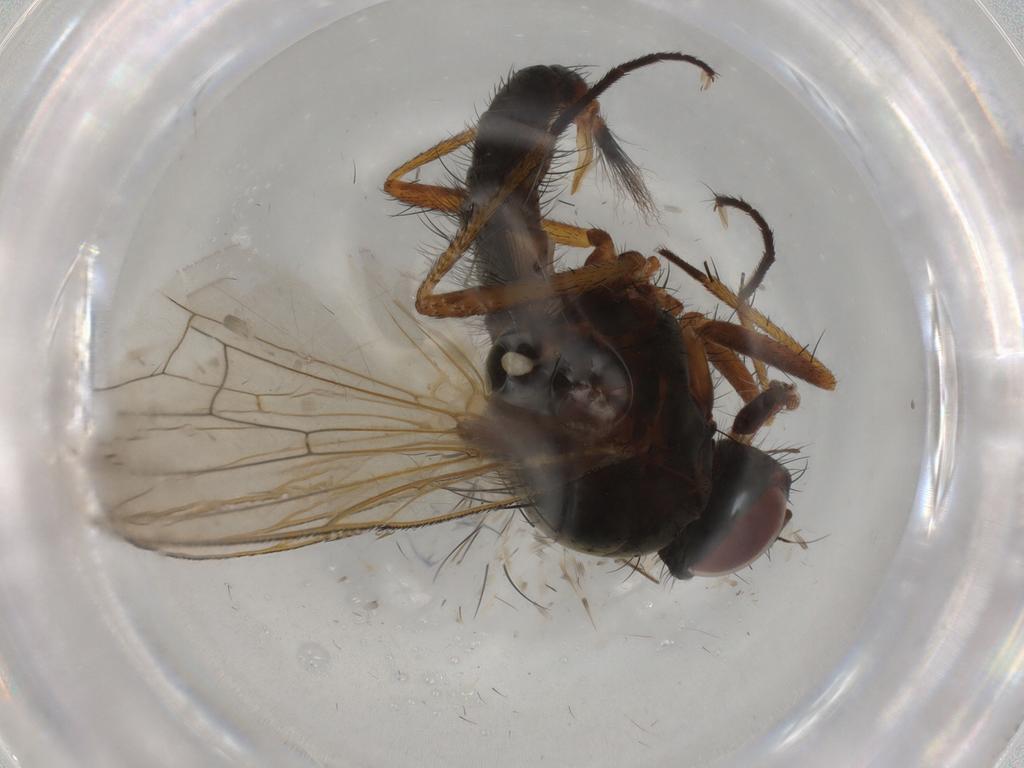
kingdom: Animalia
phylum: Arthropoda
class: Insecta
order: Diptera
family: Anthomyiidae
